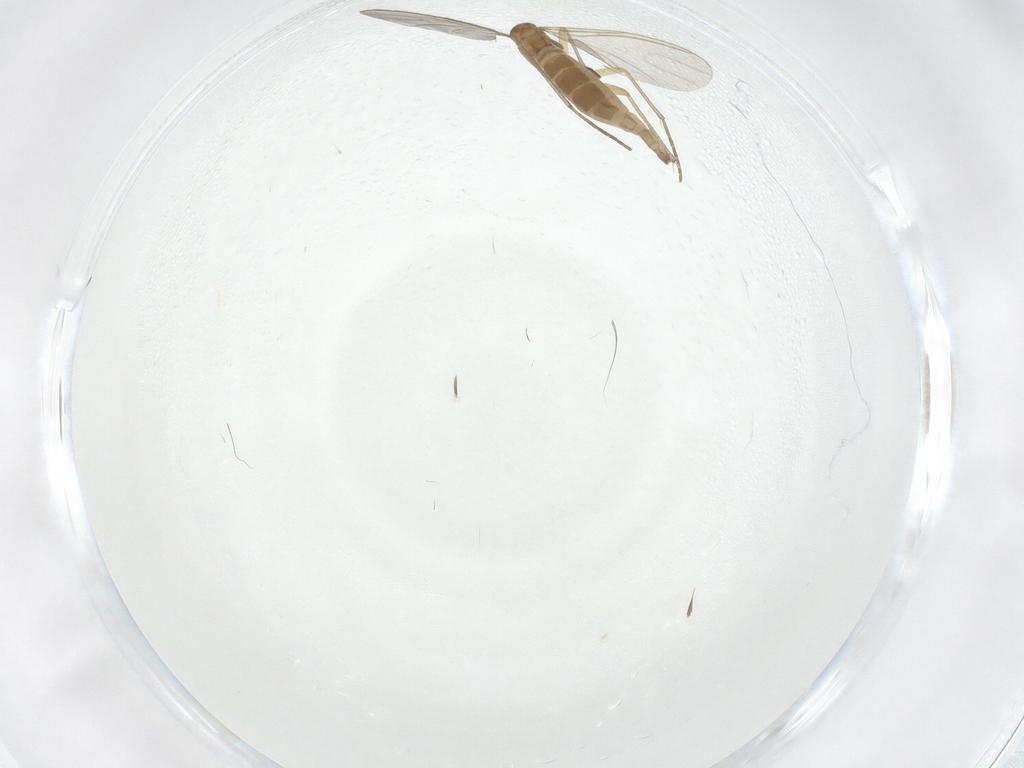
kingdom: Animalia
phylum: Arthropoda
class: Insecta
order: Diptera
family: Sciaridae
